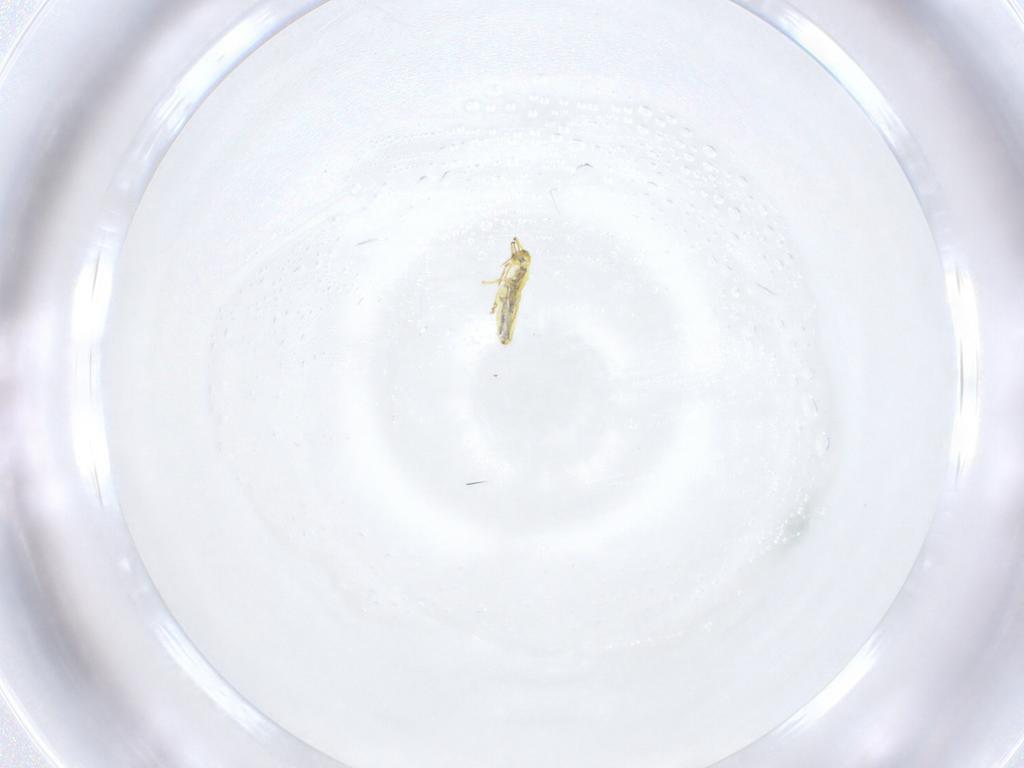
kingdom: Animalia
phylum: Arthropoda
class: Collembola
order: Entomobryomorpha
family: Entomobryidae
